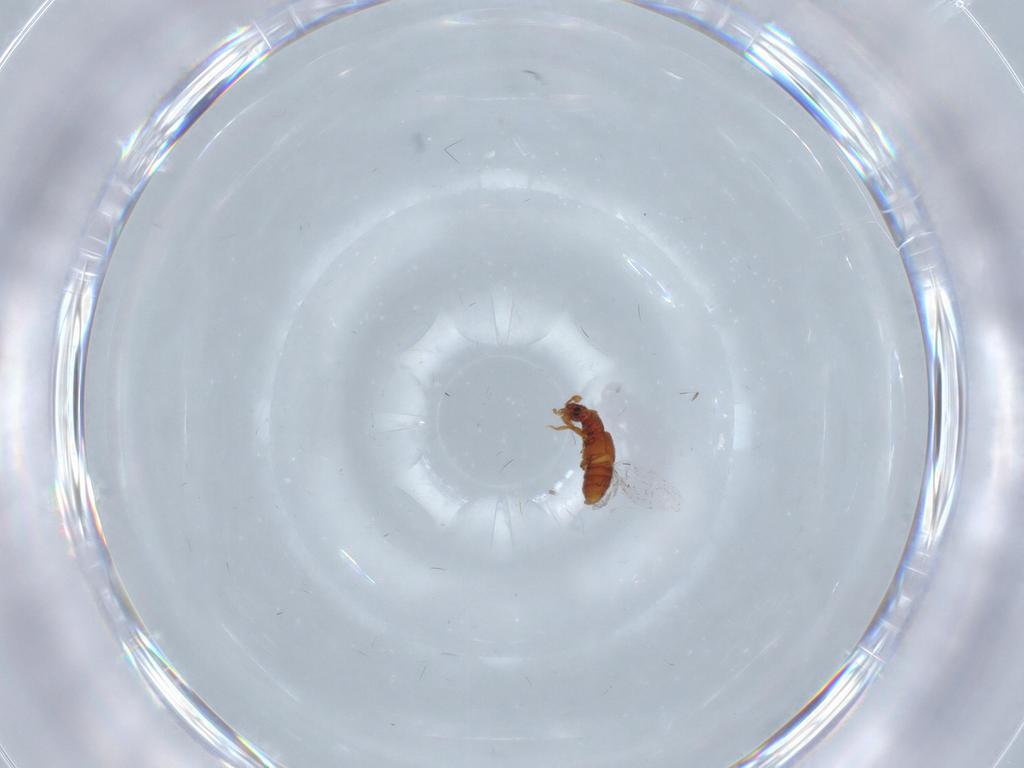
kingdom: Animalia
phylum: Arthropoda
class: Insecta
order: Coleoptera
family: Staphylinidae
